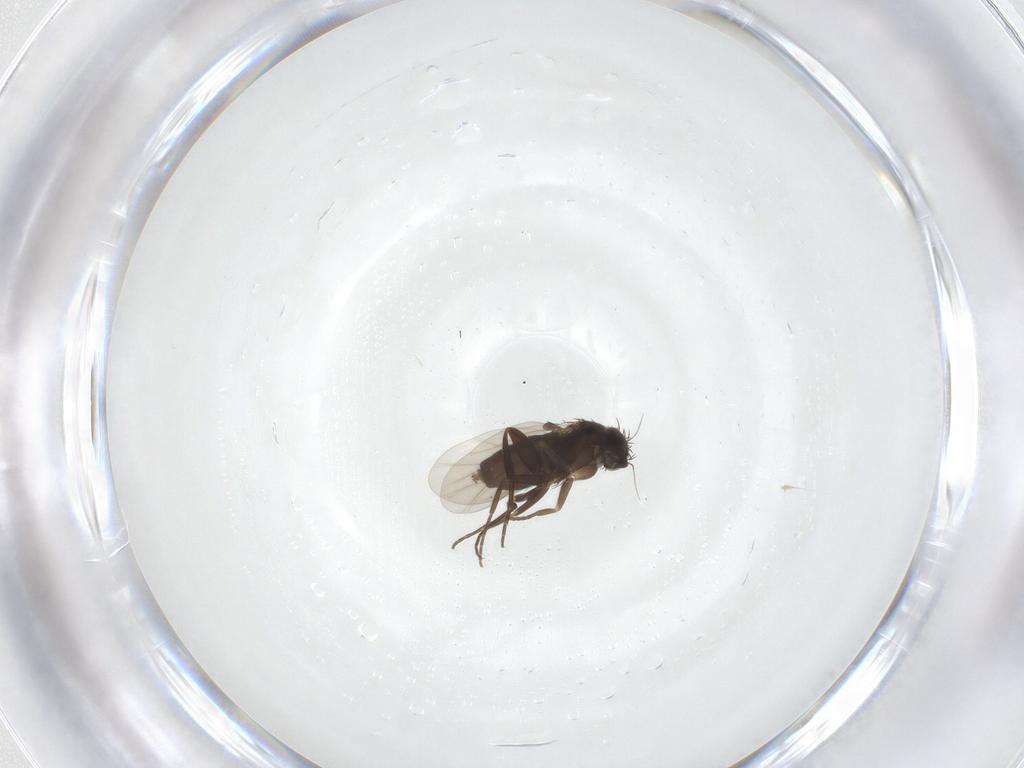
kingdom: Animalia
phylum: Arthropoda
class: Insecta
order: Diptera
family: Phoridae
